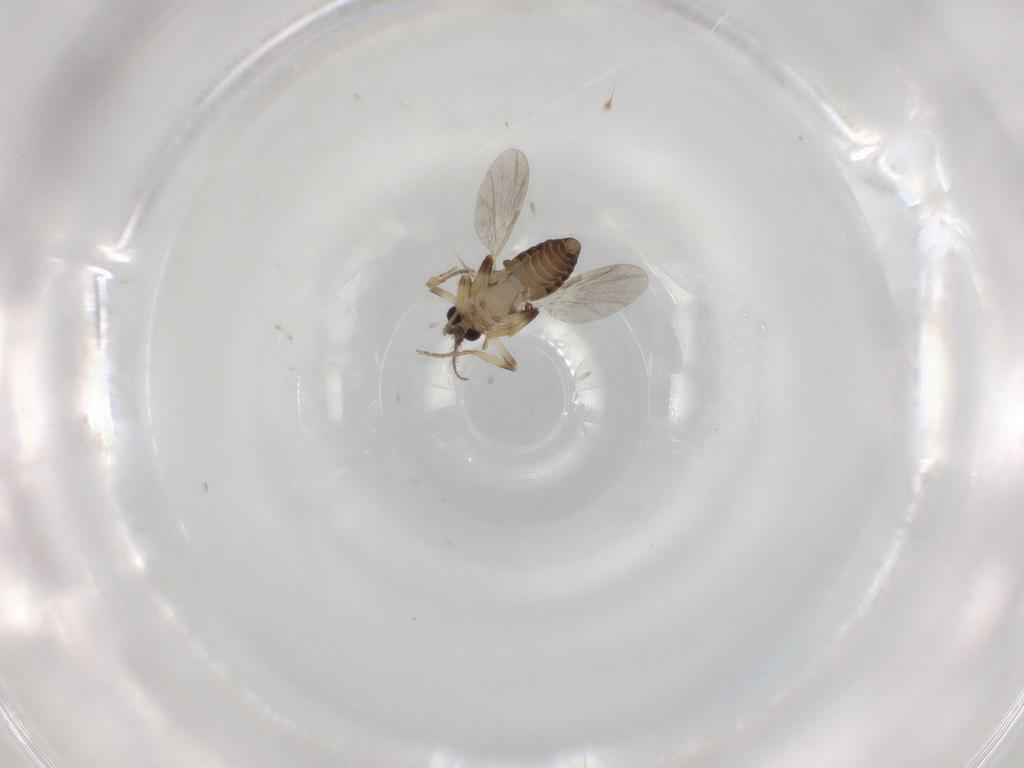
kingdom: Animalia
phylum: Arthropoda
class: Insecta
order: Diptera
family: Ceratopogonidae
